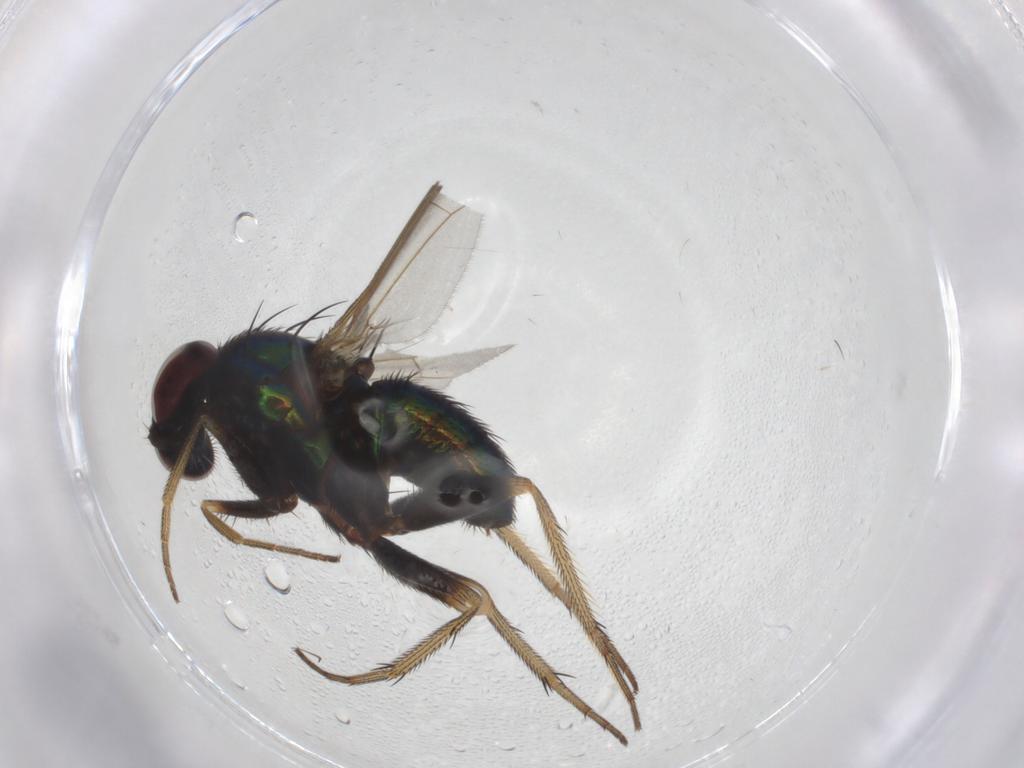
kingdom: Animalia
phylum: Arthropoda
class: Insecta
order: Diptera
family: Dolichopodidae
